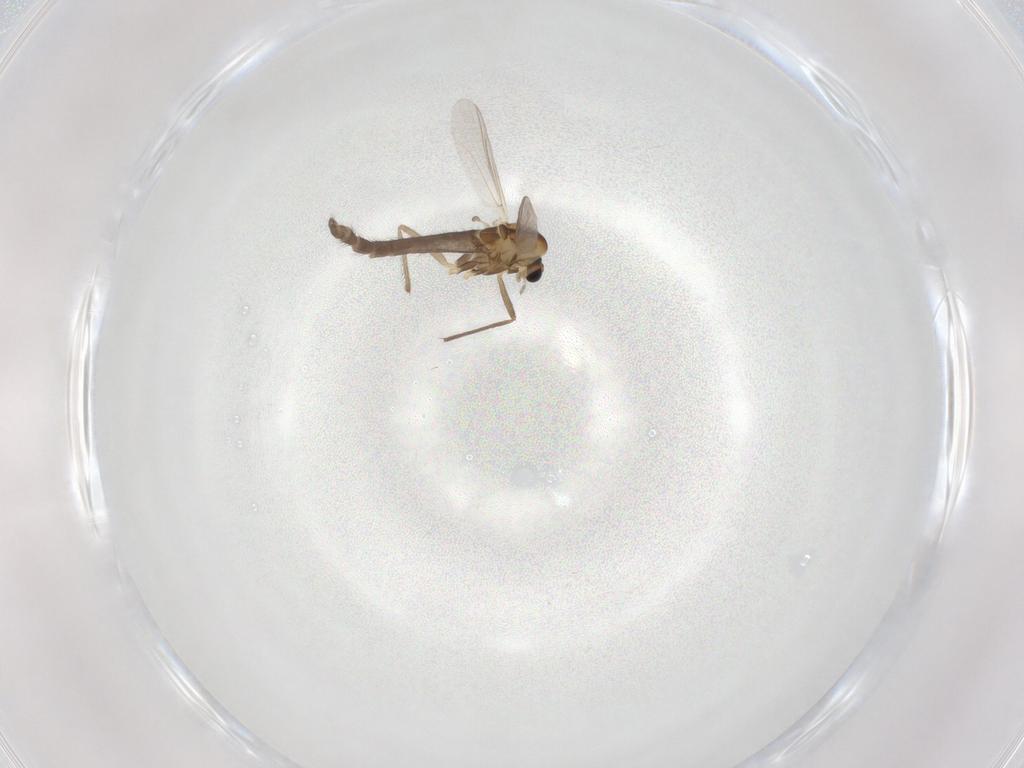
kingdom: Animalia
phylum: Arthropoda
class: Insecta
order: Diptera
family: Chironomidae
